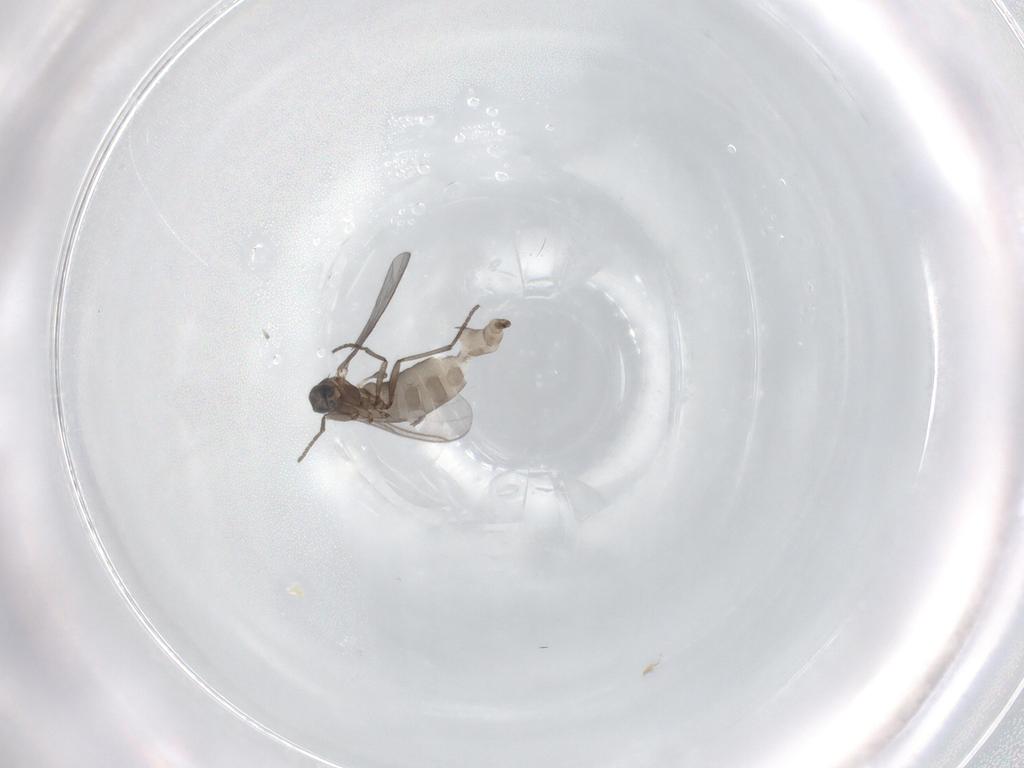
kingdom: Animalia
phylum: Arthropoda
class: Insecta
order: Diptera
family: Sciaridae
